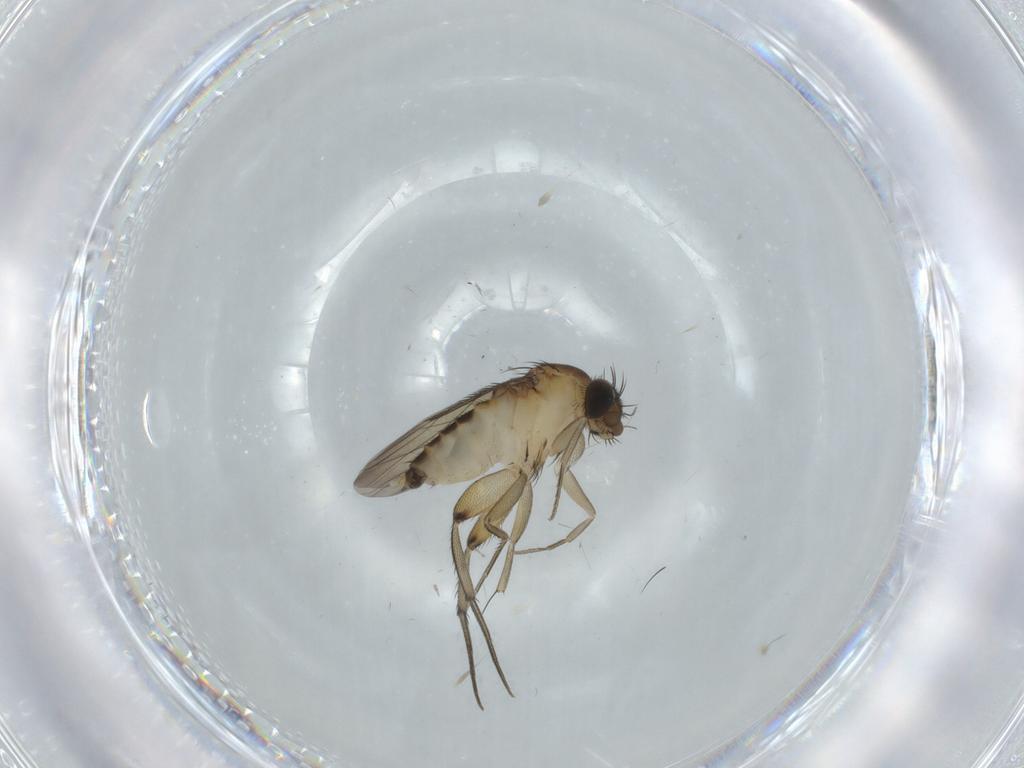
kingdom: Animalia
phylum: Arthropoda
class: Insecta
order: Diptera
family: Phoridae
